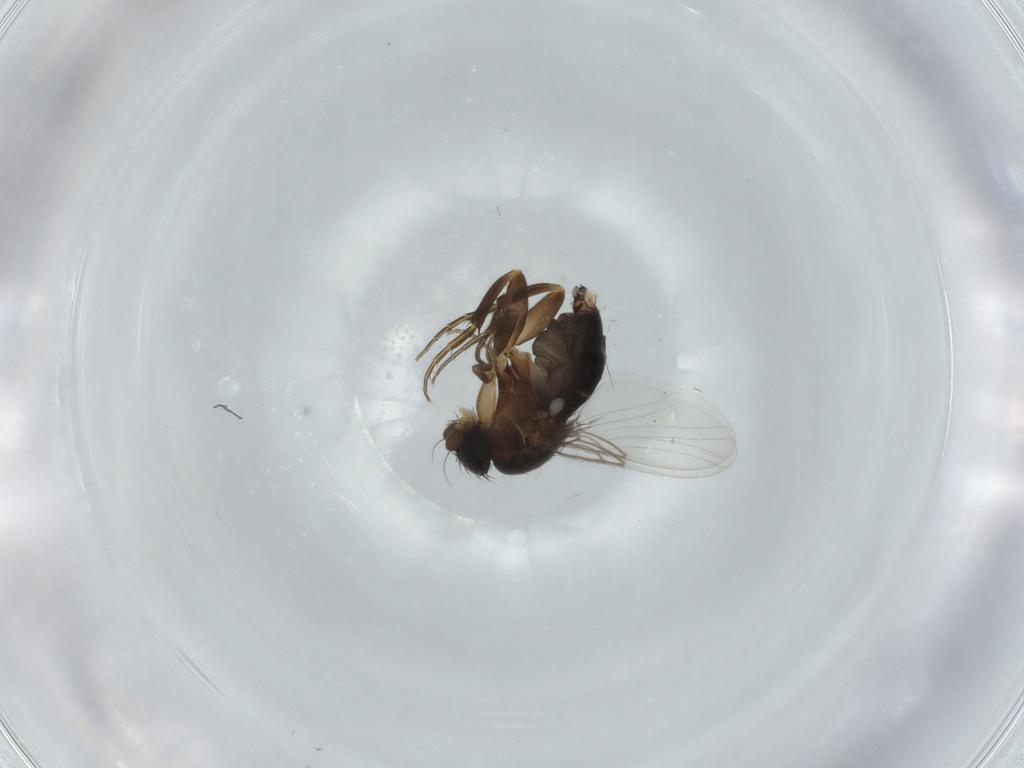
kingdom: Animalia
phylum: Arthropoda
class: Insecta
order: Diptera
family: Phoridae
